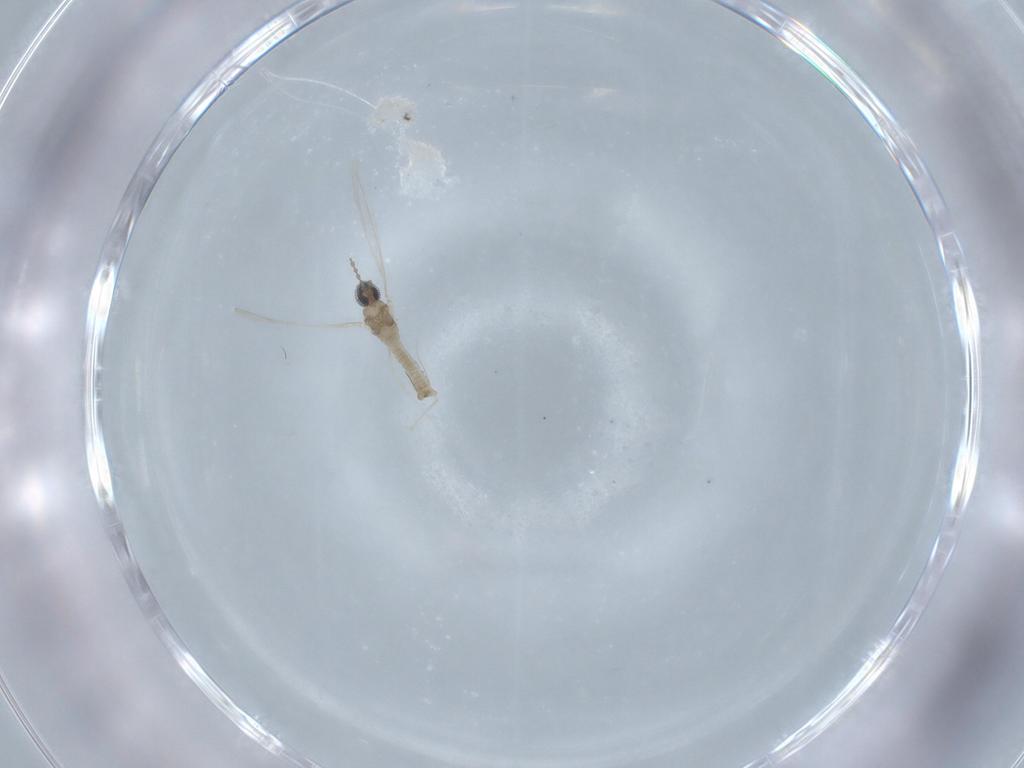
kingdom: Animalia
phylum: Arthropoda
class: Insecta
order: Diptera
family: Cecidomyiidae
